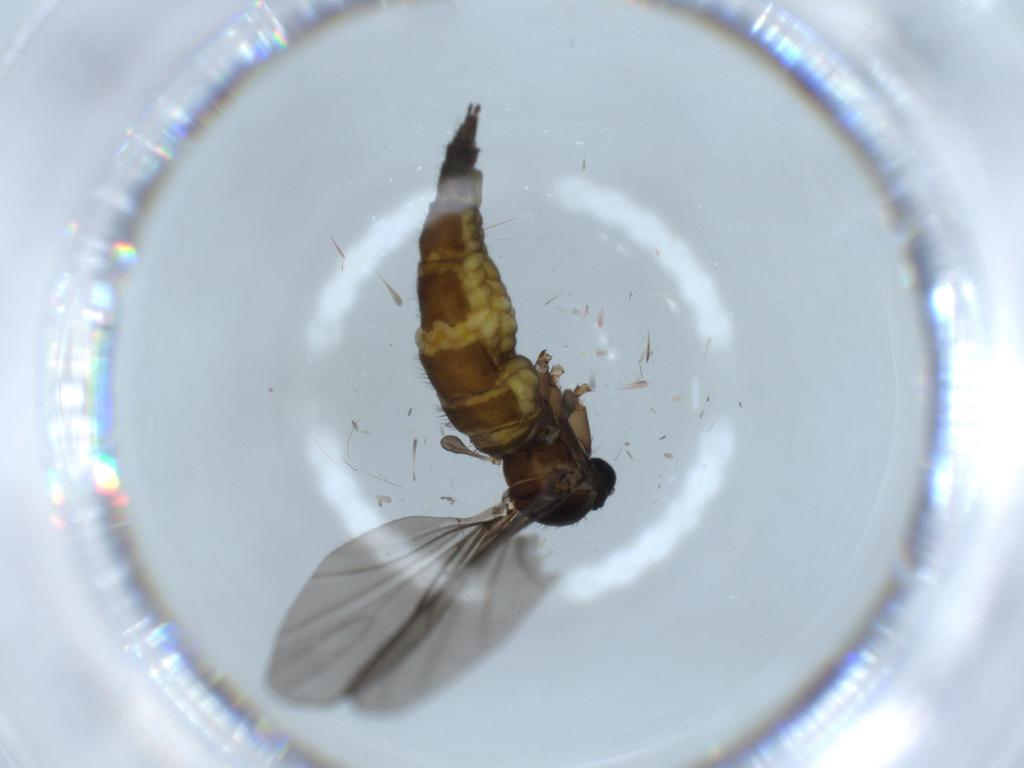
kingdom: Animalia
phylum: Arthropoda
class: Insecta
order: Diptera
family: Sciaridae
